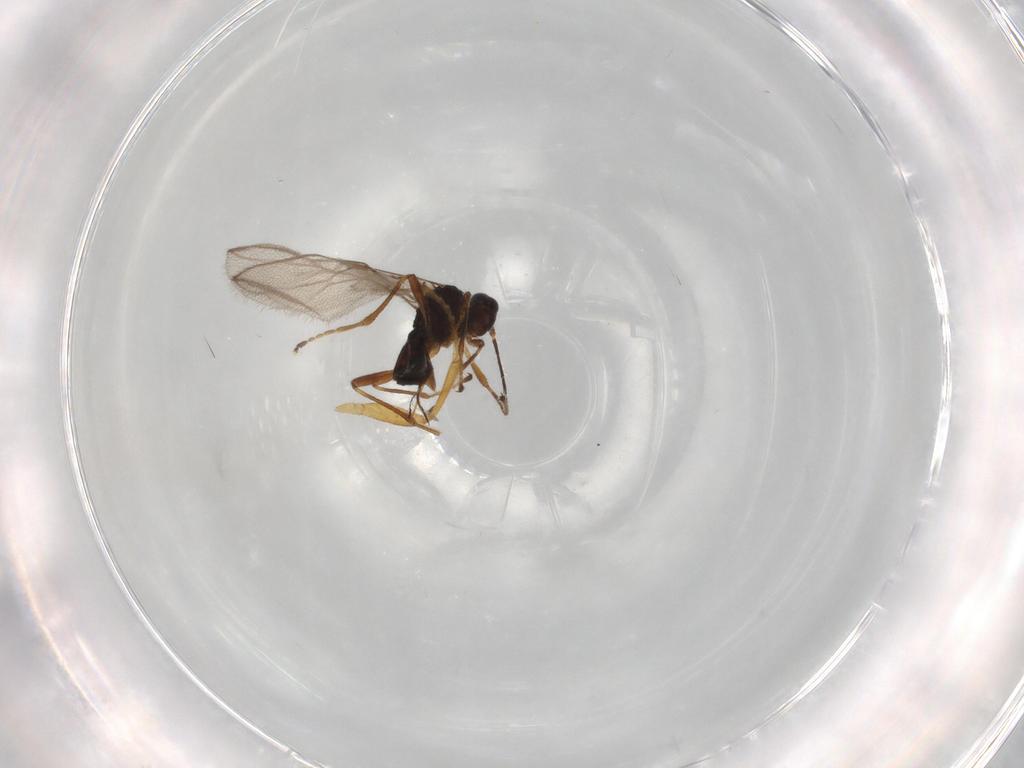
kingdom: Animalia
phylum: Arthropoda
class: Insecta
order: Hymenoptera
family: Braconidae
